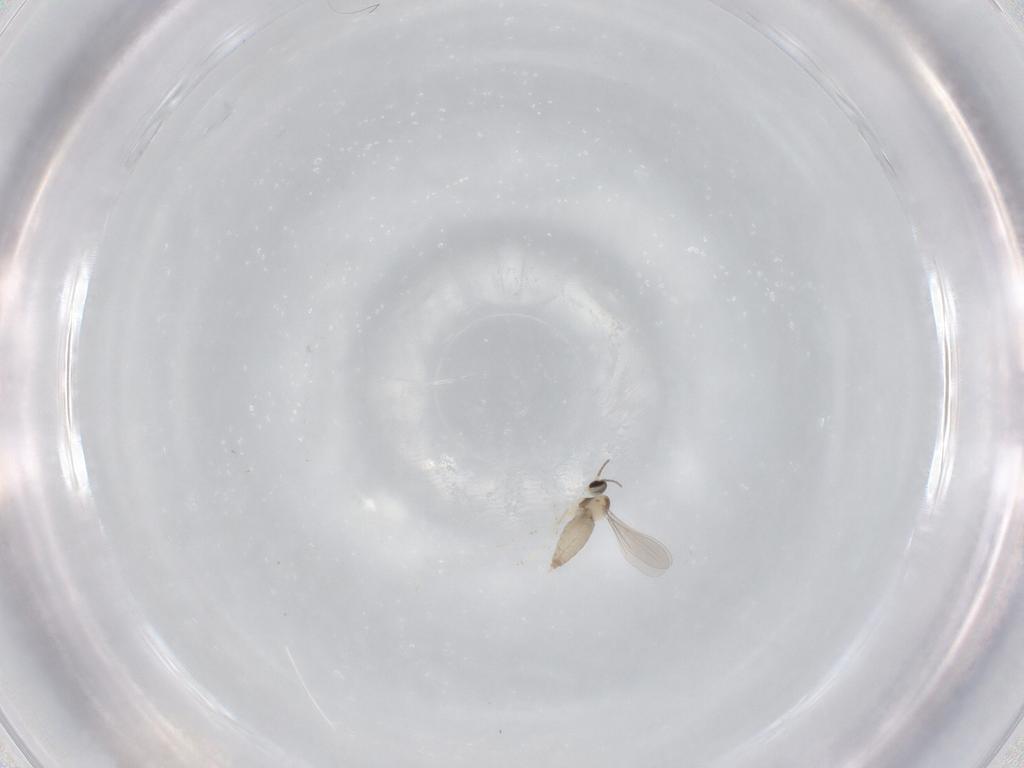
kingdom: Animalia
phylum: Arthropoda
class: Insecta
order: Diptera
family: Cecidomyiidae
